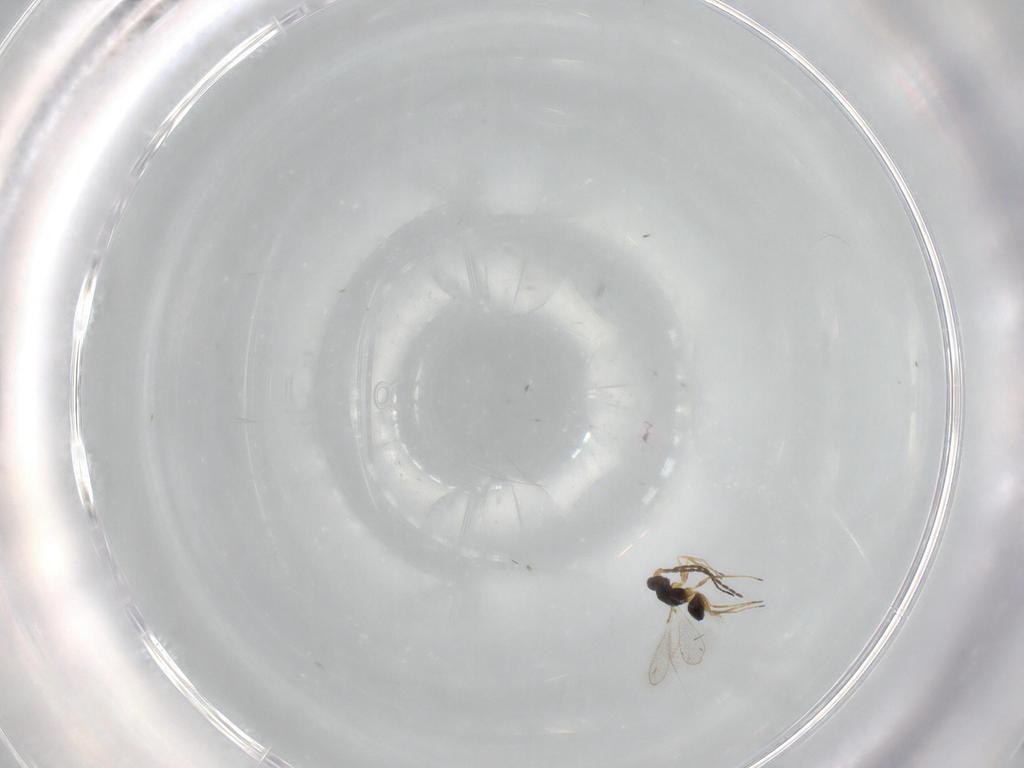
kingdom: Animalia
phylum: Arthropoda
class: Insecta
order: Hymenoptera
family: Mymaridae
